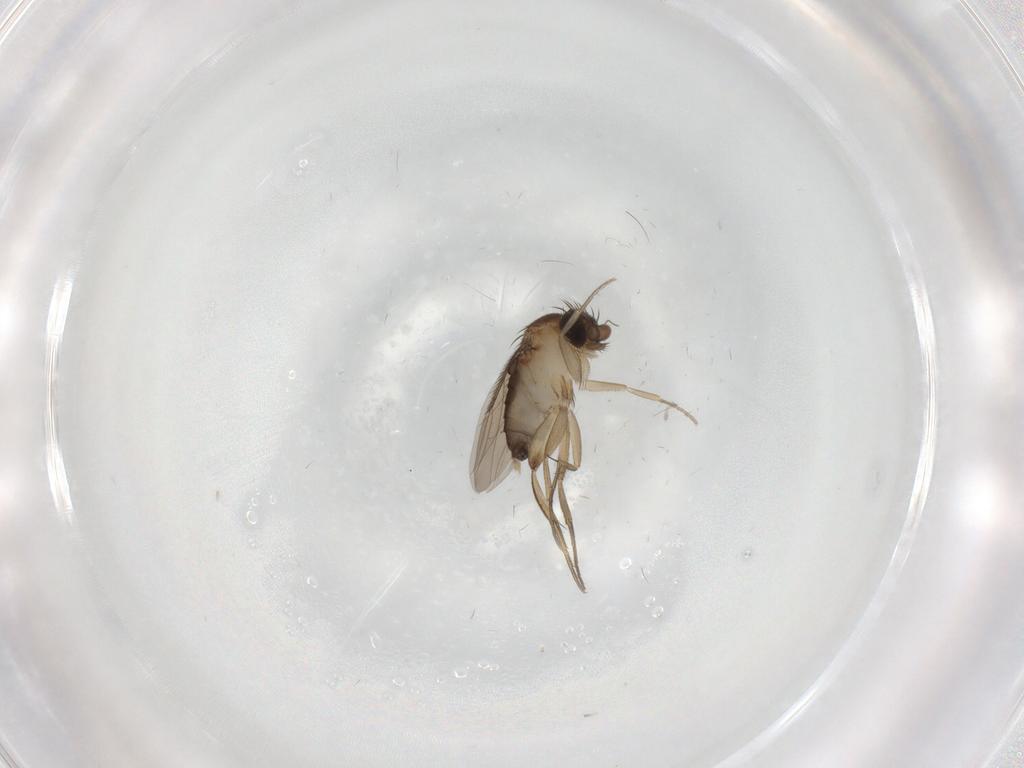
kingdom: Animalia
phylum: Arthropoda
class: Insecta
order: Diptera
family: Phoridae
